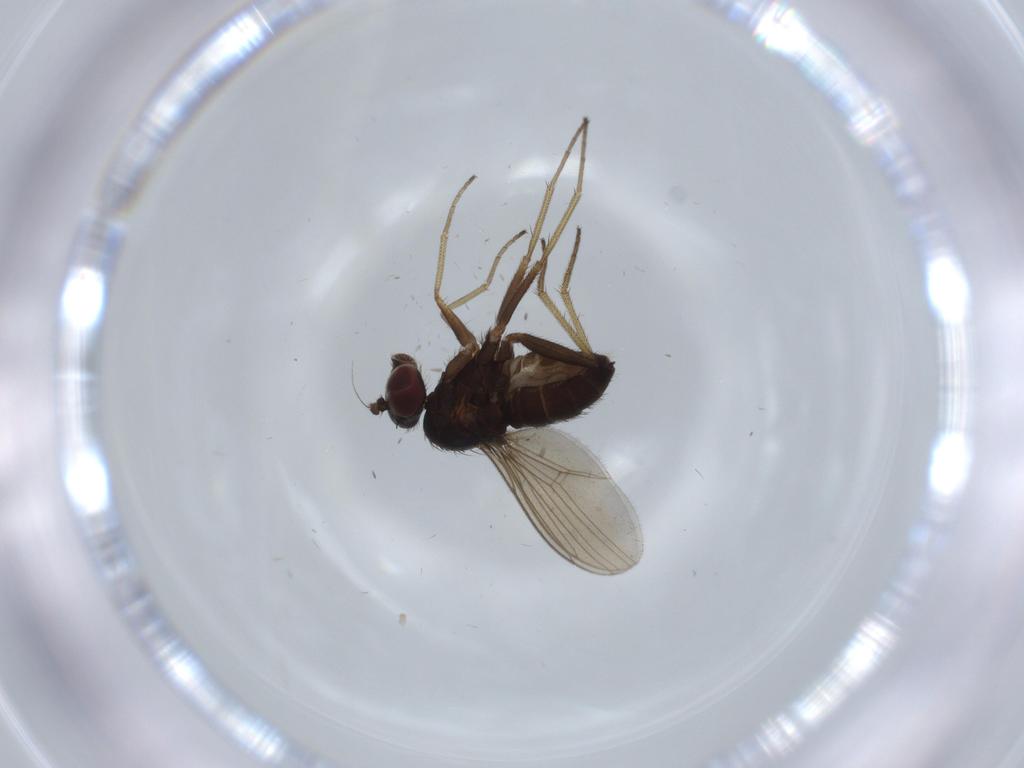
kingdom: Animalia
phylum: Arthropoda
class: Insecta
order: Diptera
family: Dolichopodidae
